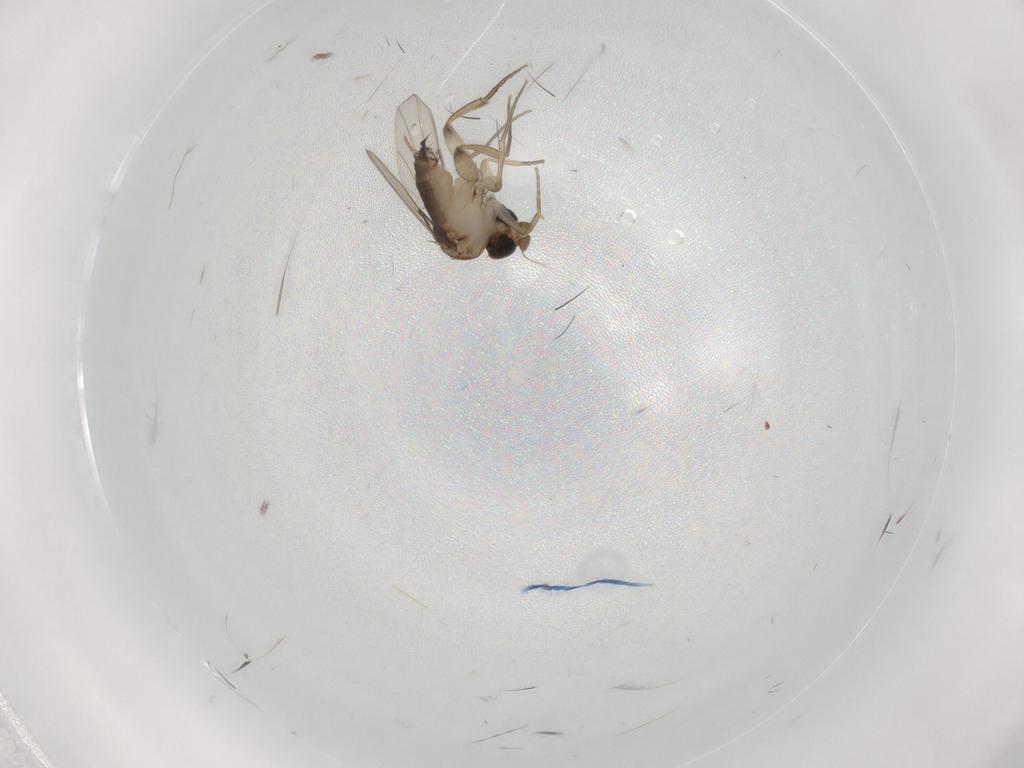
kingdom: Animalia
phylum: Arthropoda
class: Insecta
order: Diptera
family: Phoridae
